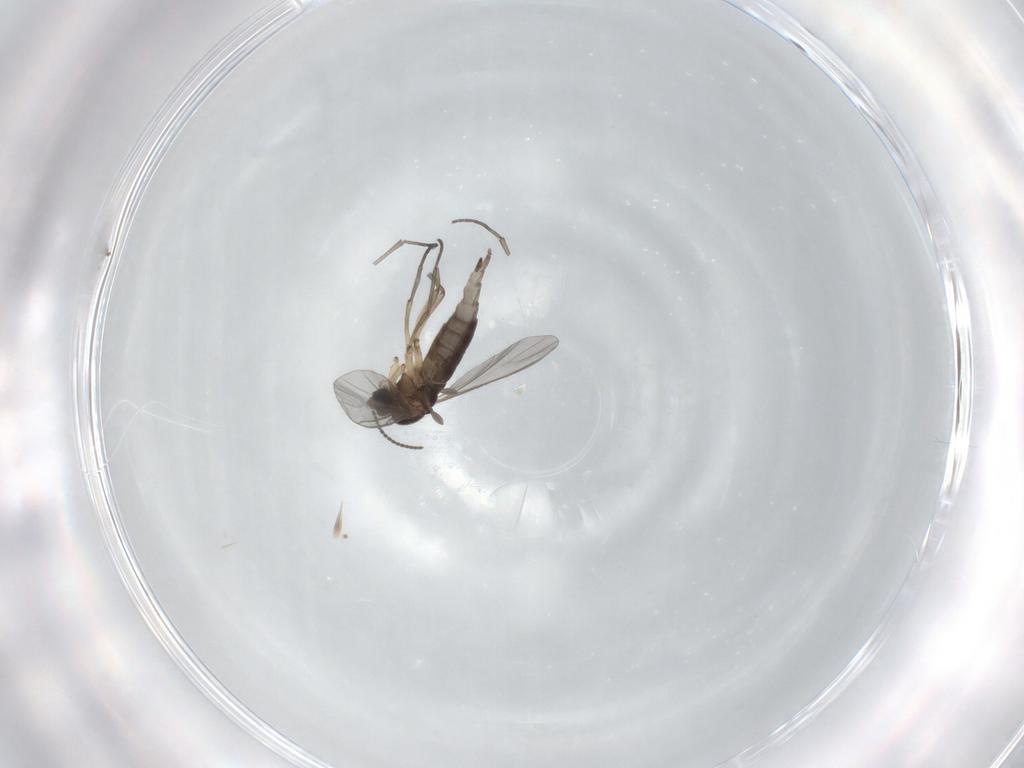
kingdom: Animalia
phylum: Arthropoda
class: Insecta
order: Diptera
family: Sciaridae
